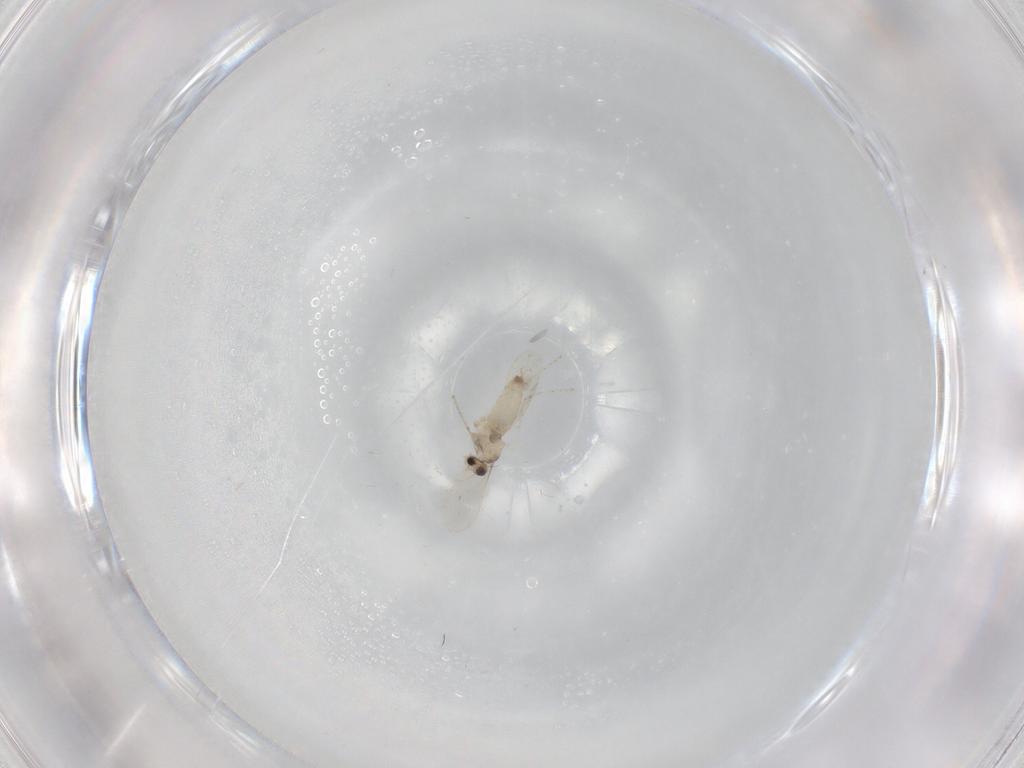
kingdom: Animalia
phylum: Arthropoda
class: Insecta
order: Diptera
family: Cecidomyiidae
